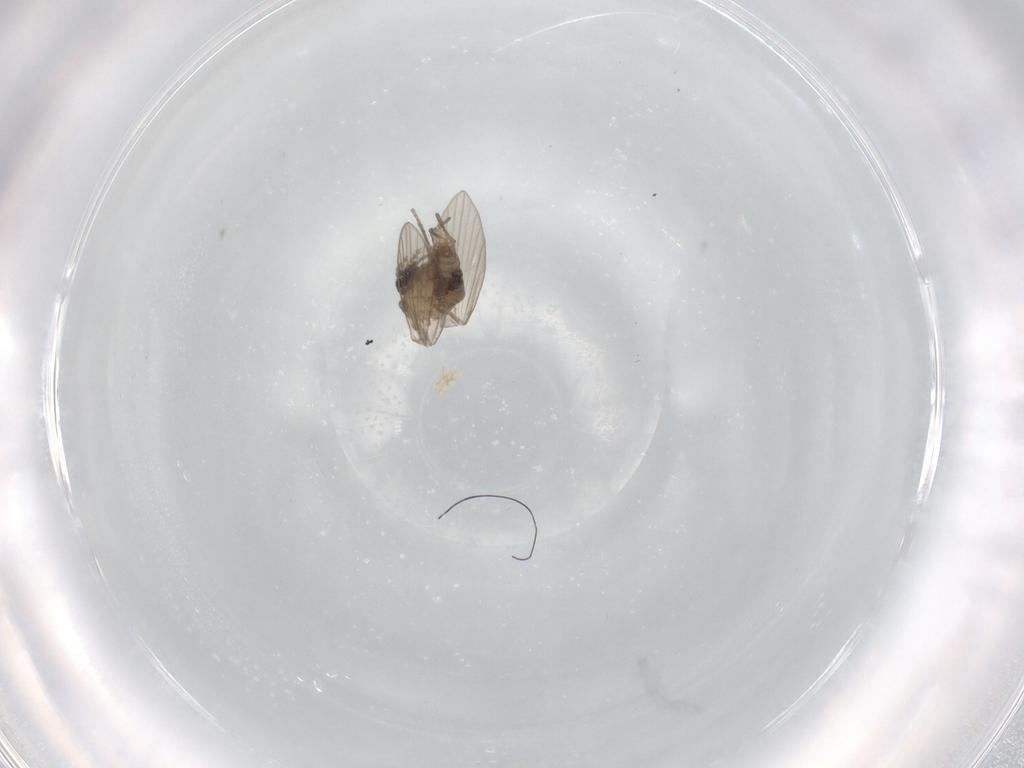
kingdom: Animalia
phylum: Arthropoda
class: Insecta
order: Diptera
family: Psychodidae
